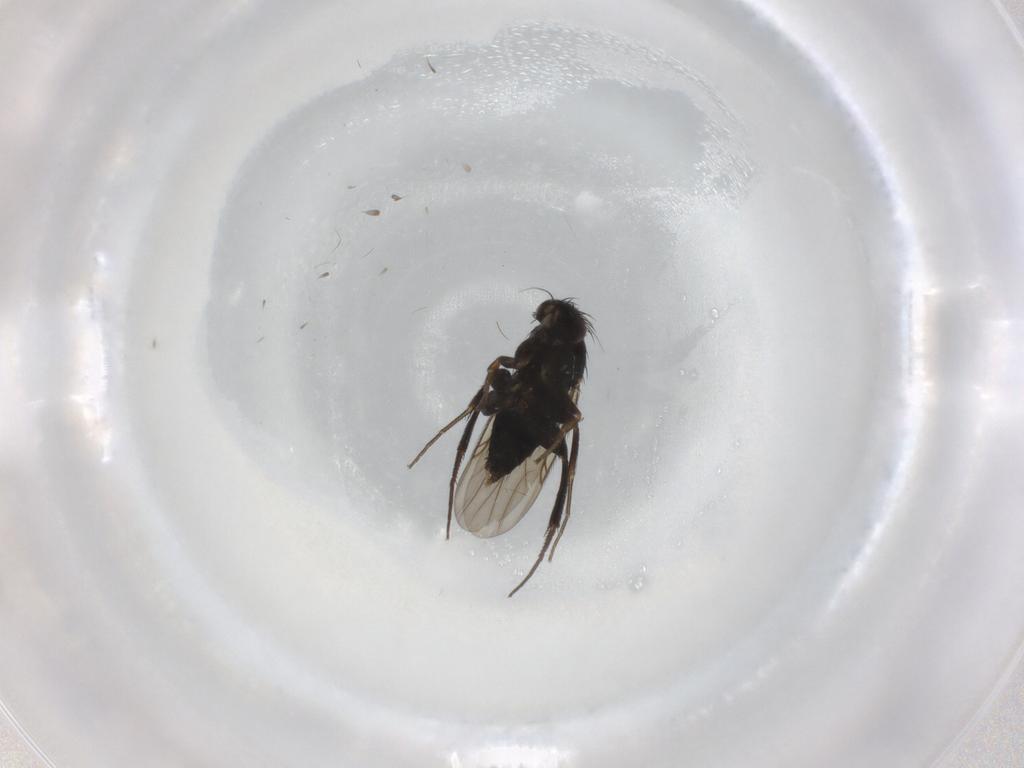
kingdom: Animalia
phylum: Arthropoda
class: Insecta
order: Diptera
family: Phoridae
